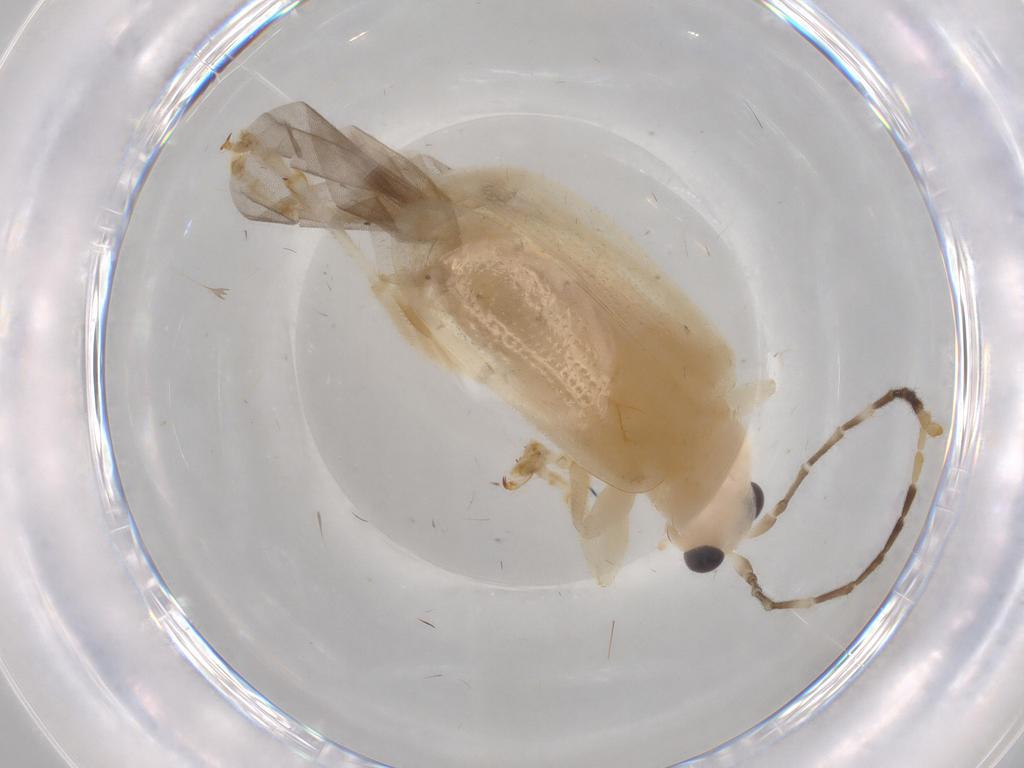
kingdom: Animalia
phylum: Arthropoda
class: Insecta
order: Coleoptera
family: Chrysomelidae
